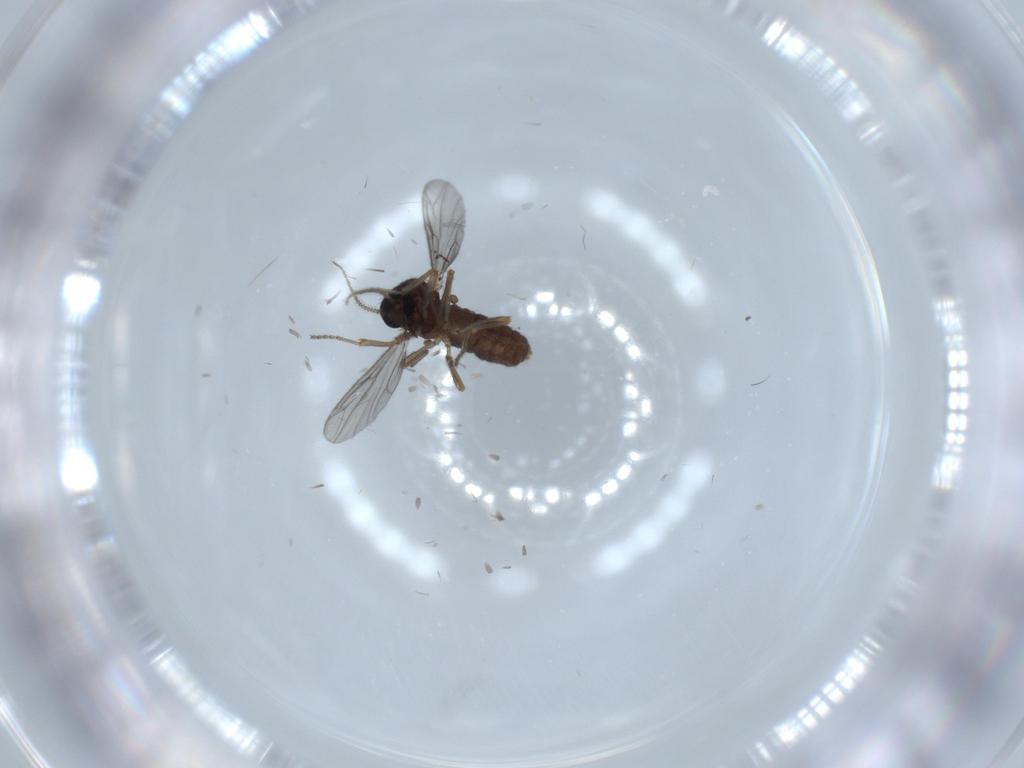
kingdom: Animalia
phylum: Arthropoda
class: Insecta
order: Diptera
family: Ceratopogonidae
